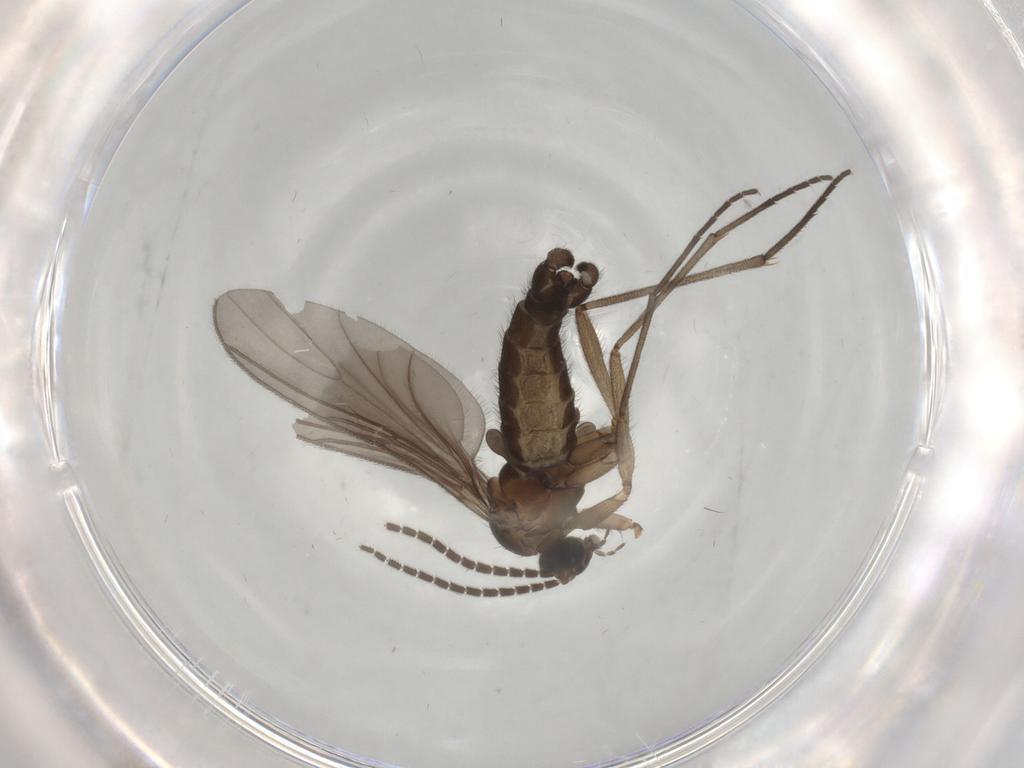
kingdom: Animalia
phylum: Arthropoda
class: Insecta
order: Diptera
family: Sciaridae
